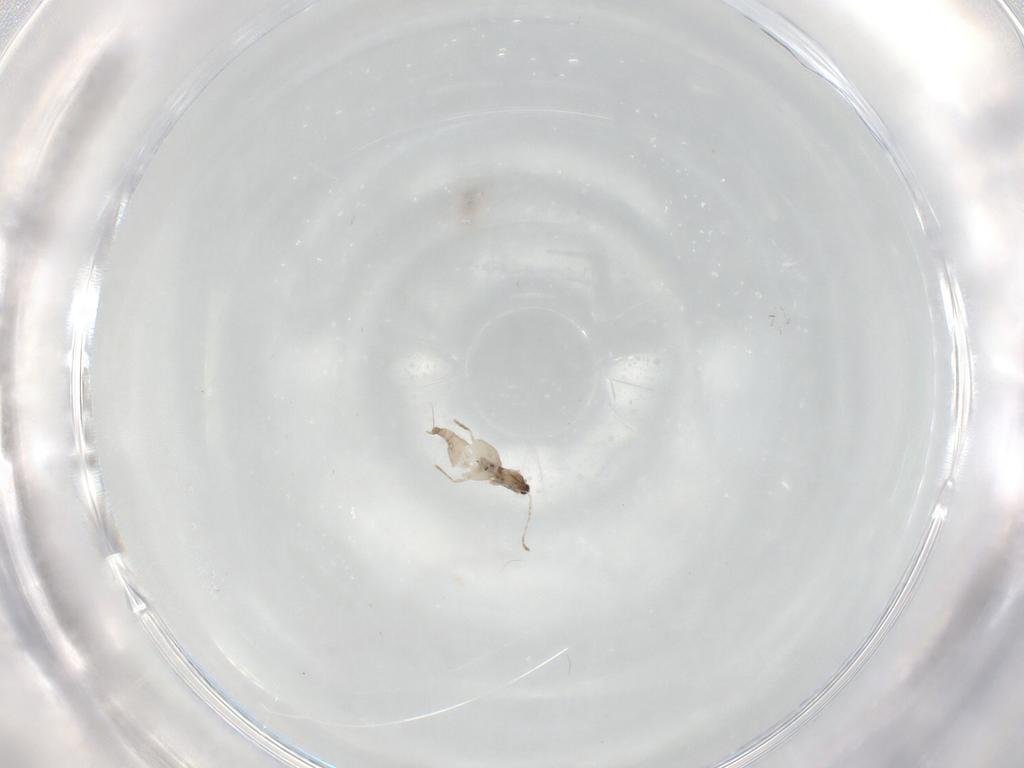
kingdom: Animalia
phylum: Arthropoda
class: Insecta
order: Diptera
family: Cecidomyiidae
